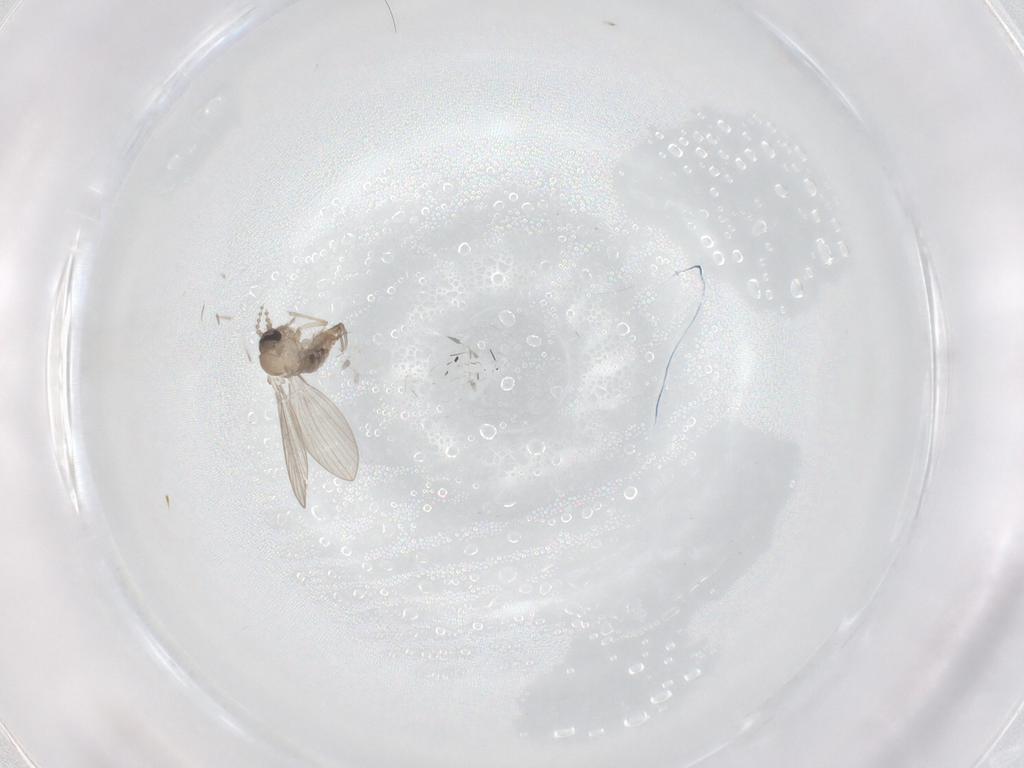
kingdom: Animalia
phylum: Arthropoda
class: Insecta
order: Diptera
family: Psychodidae
